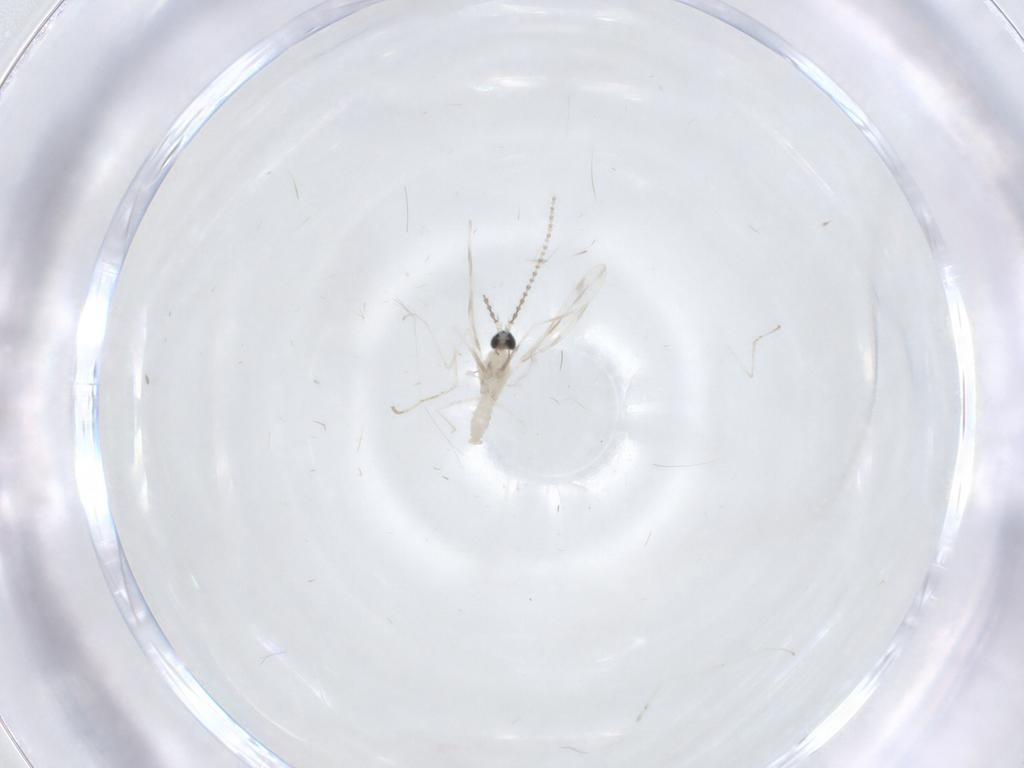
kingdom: Animalia
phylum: Arthropoda
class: Insecta
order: Diptera
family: Cecidomyiidae
